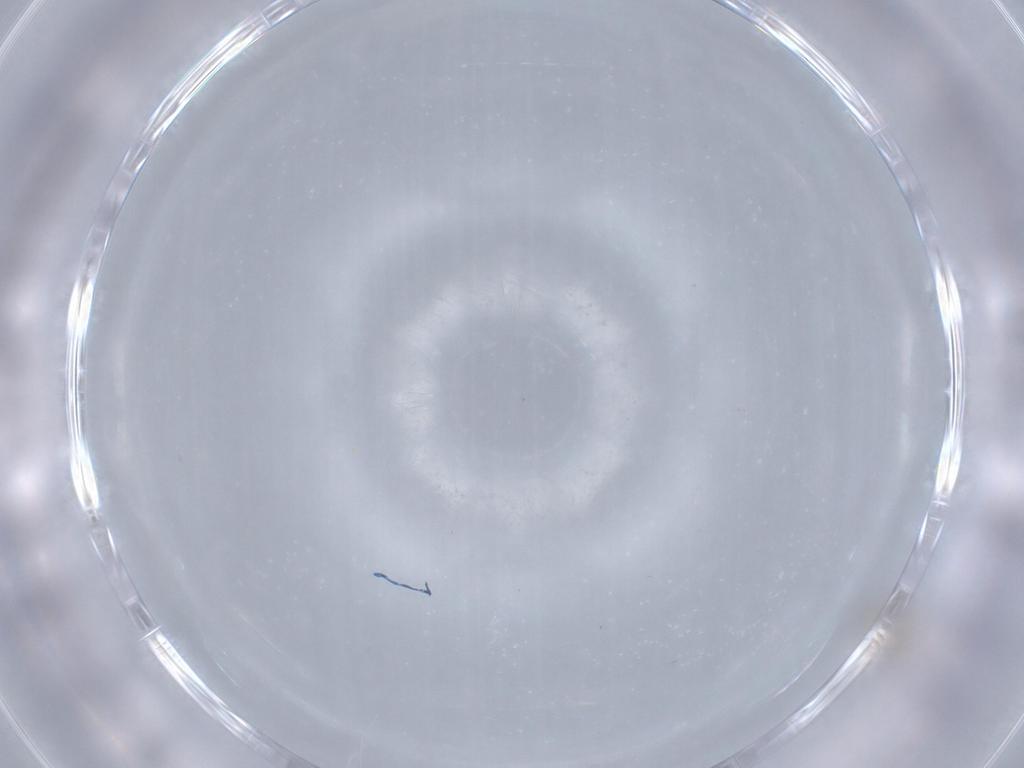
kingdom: Animalia
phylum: Arthropoda
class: Insecta
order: Diptera
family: Cecidomyiidae
